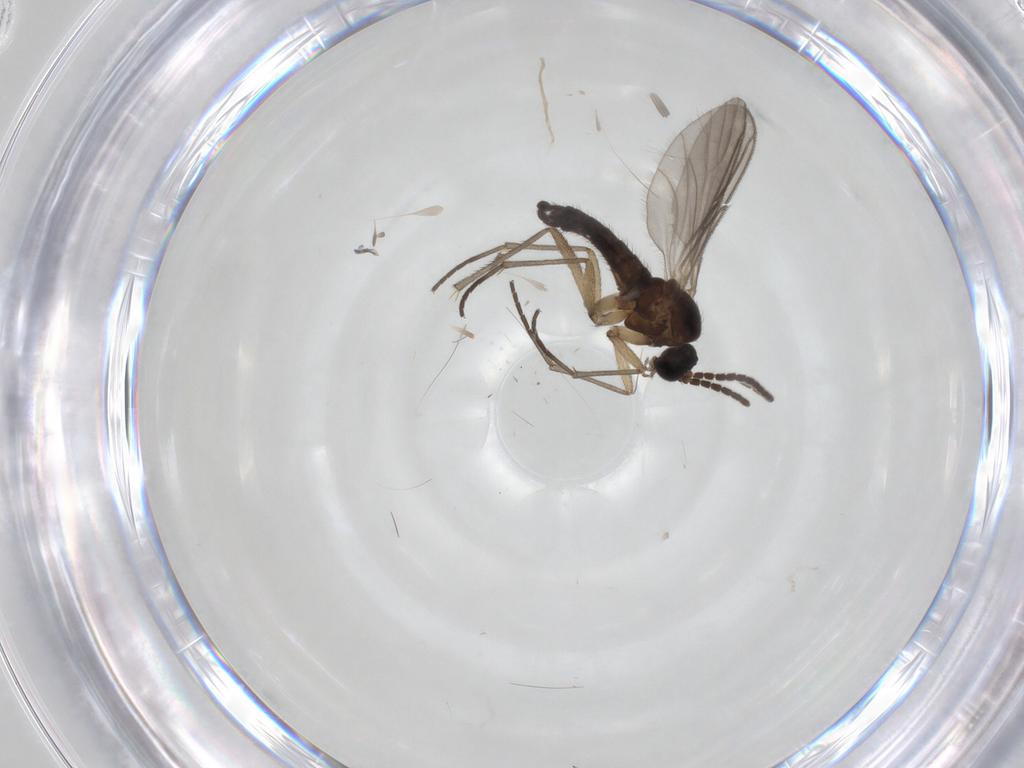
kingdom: Animalia
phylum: Arthropoda
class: Insecta
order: Diptera
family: Sciaridae
